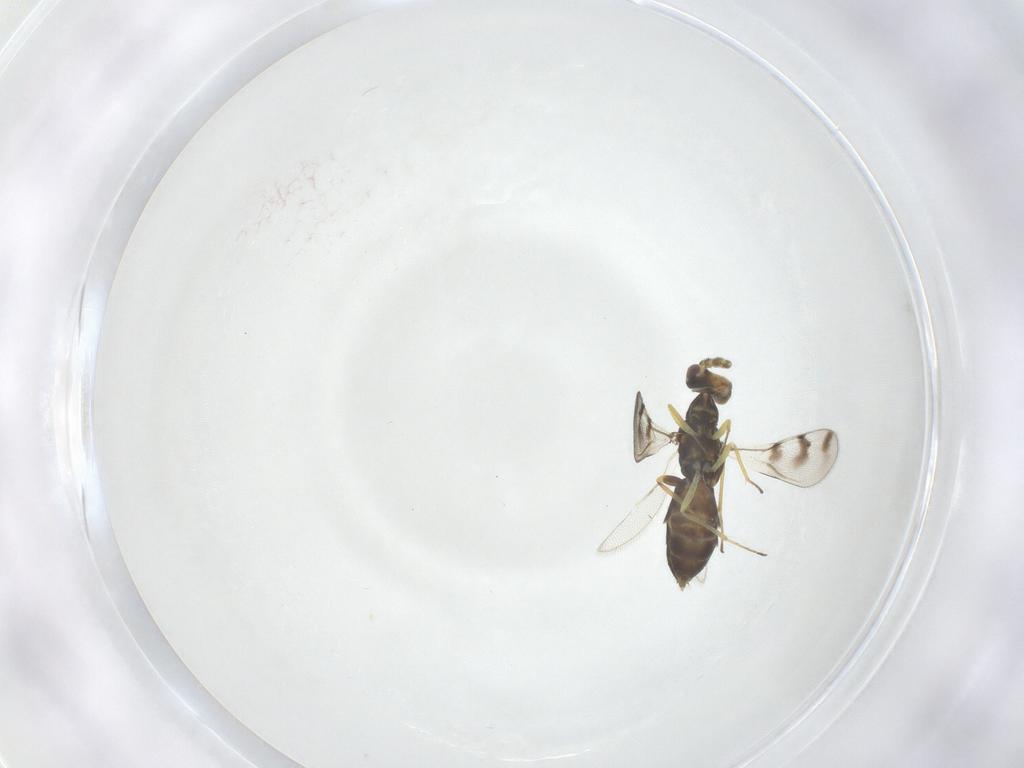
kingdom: Animalia
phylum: Arthropoda
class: Insecta
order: Hymenoptera
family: Eulophidae
